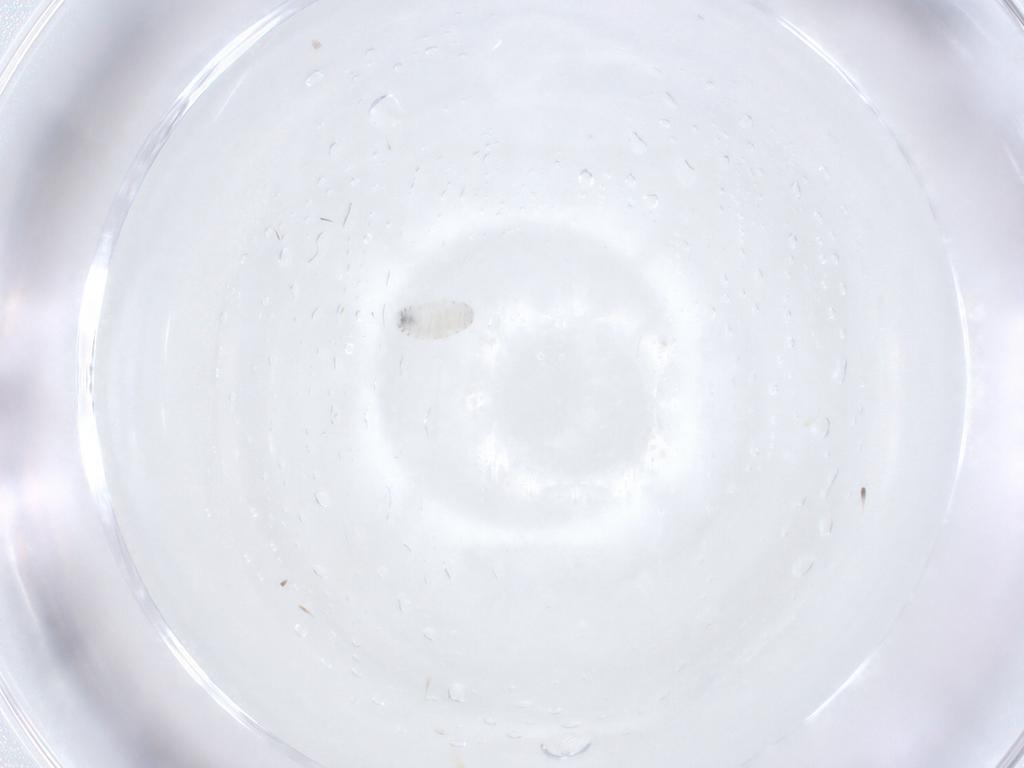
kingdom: Animalia
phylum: Arthropoda
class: Insecta
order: Diptera
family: Tachinidae
